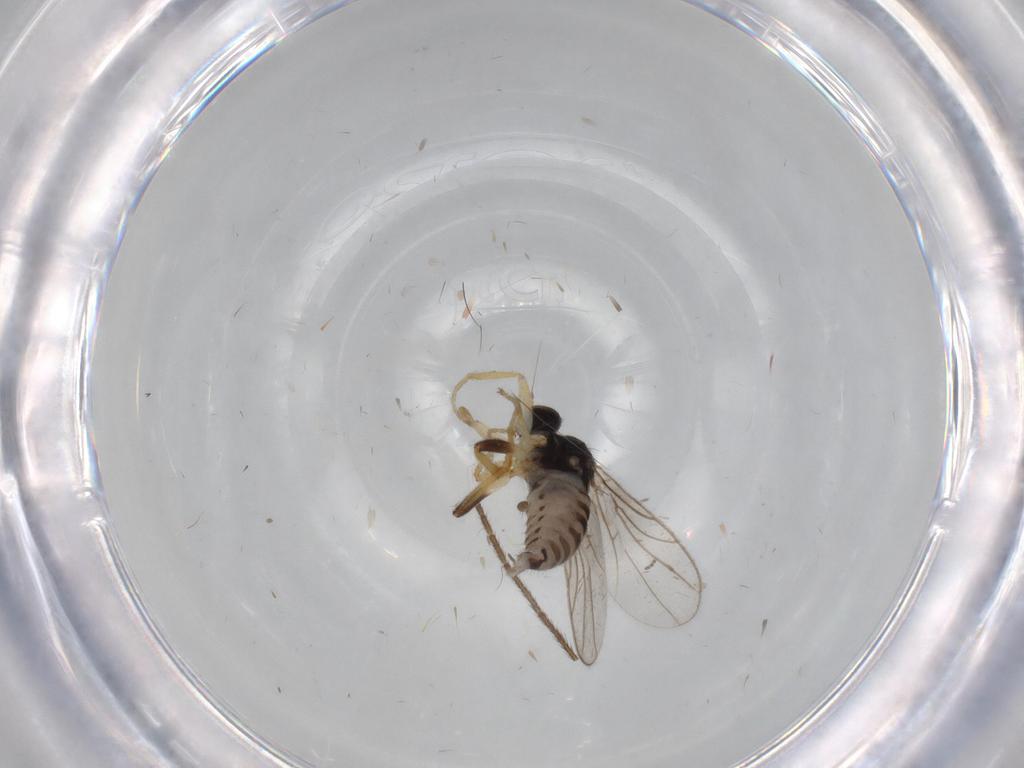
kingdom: Animalia
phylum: Arthropoda
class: Insecta
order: Diptera
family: Hybotidae
